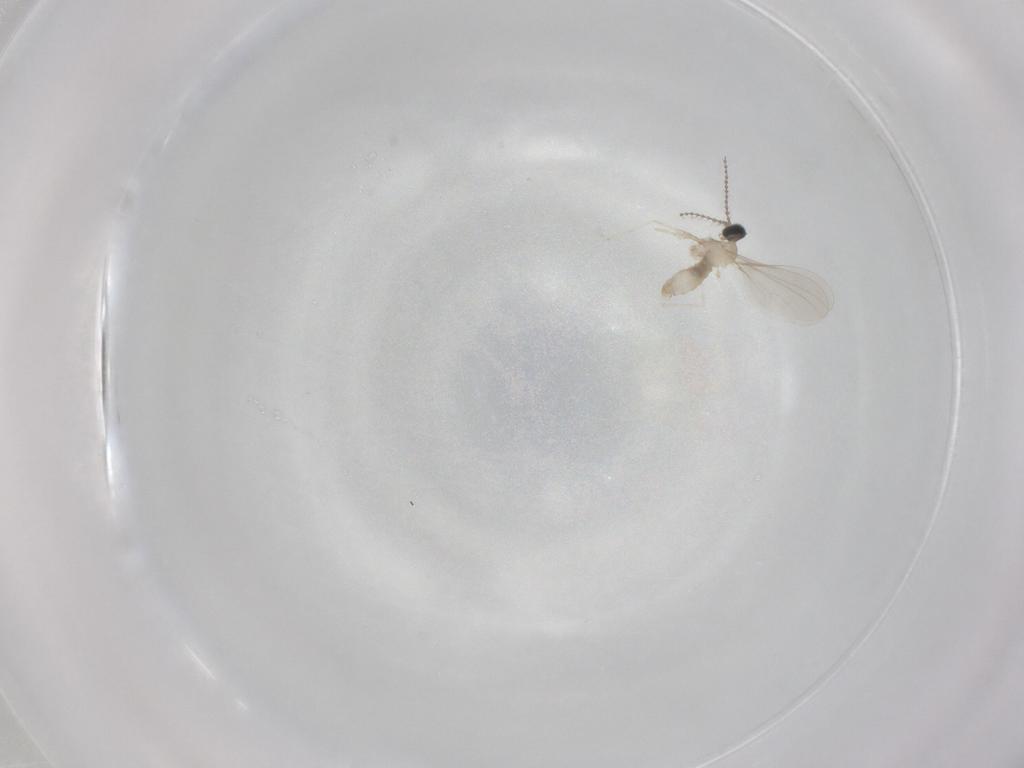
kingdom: Animalia
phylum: Arthropoda
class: Insecta
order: Diptera
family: Cecidomyiidae
